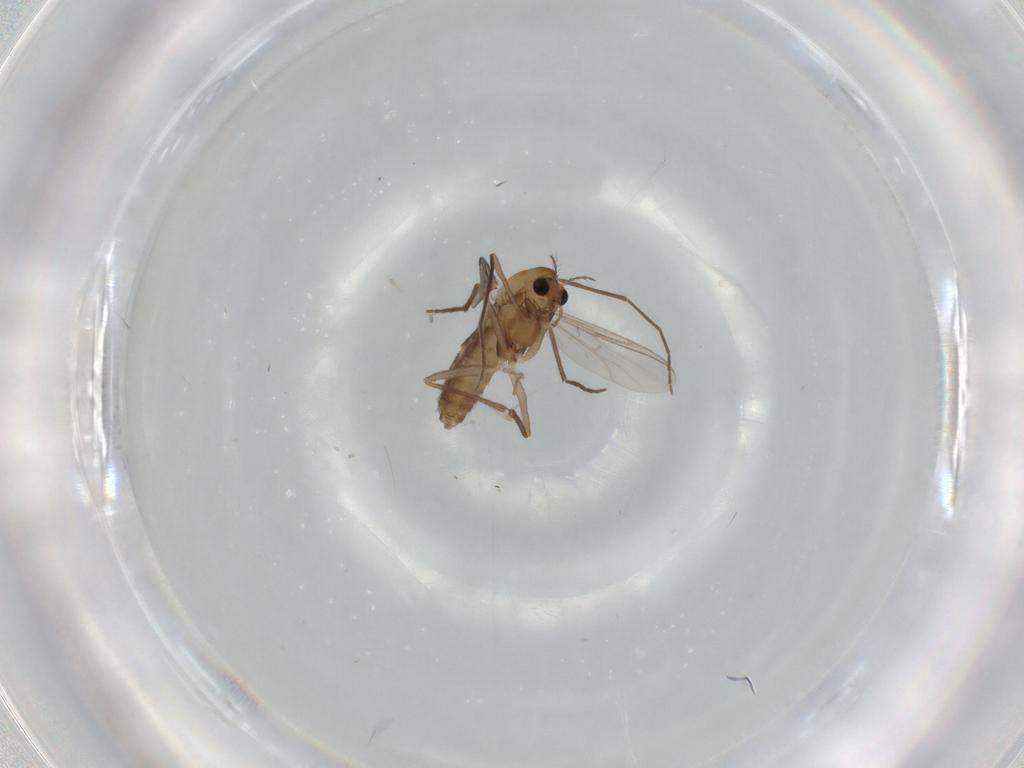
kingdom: Animalia
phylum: Arthropoda
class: Insecta
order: Diptera
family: Chironomidae
